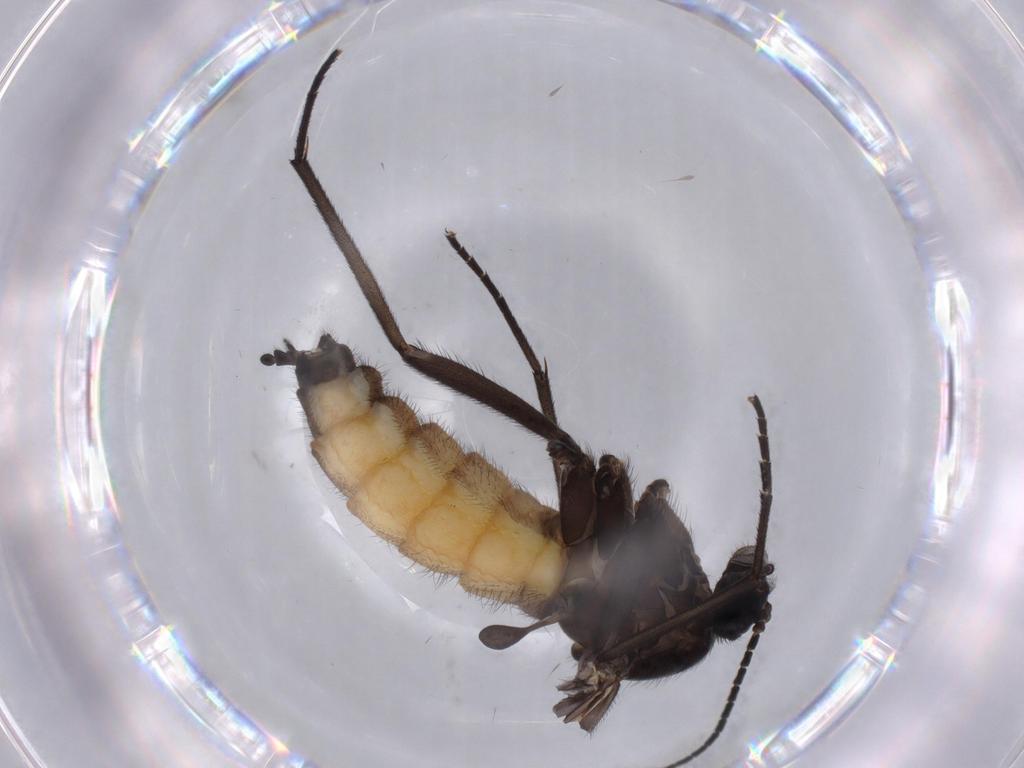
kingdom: Animalia
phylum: Arthropoda
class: Insecta
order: Diptera
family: Sciaridae
